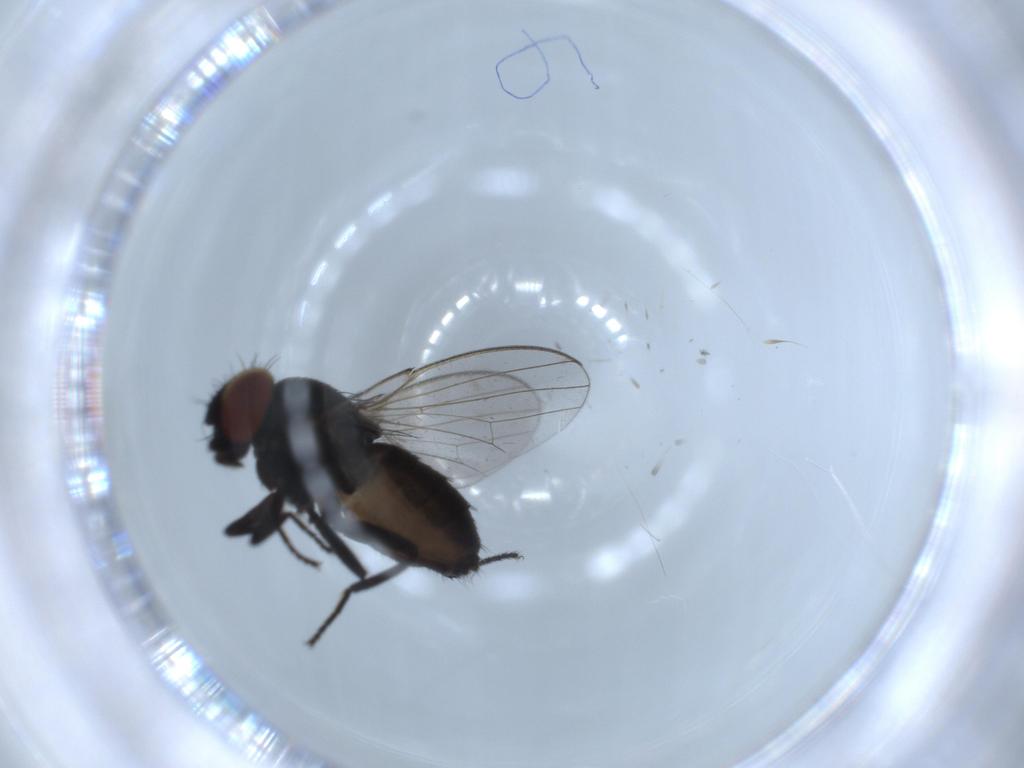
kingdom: Animalia
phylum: Arthropoda
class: Insecta
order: Diptera
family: Milichiidae
